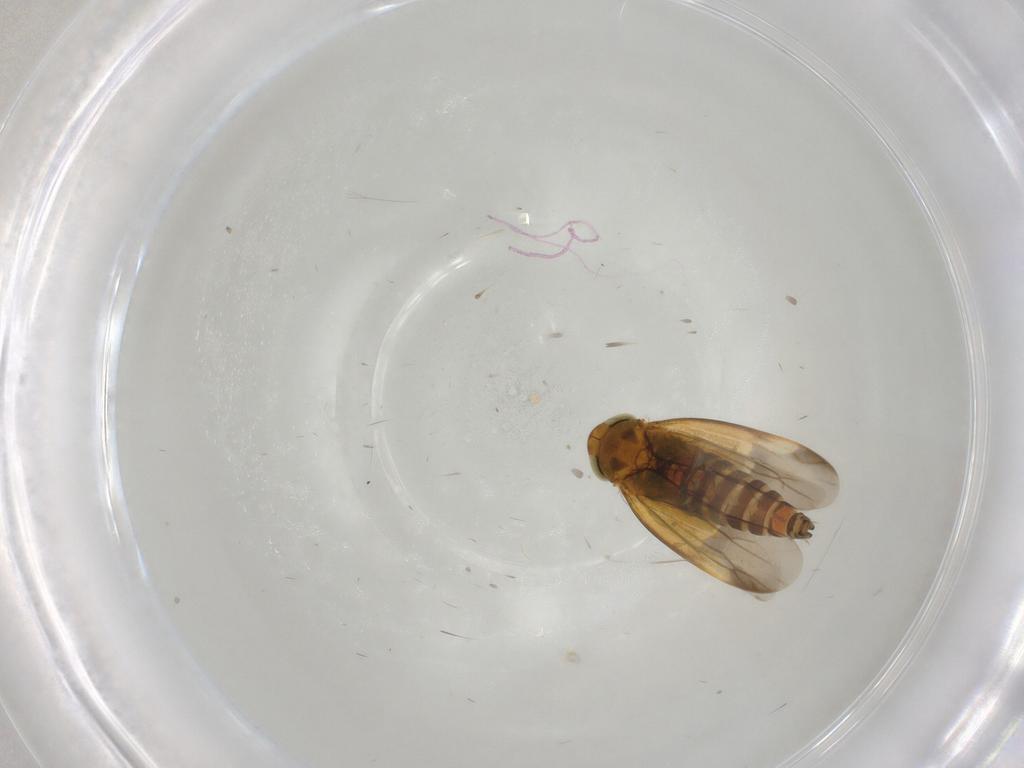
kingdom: Animalia
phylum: Arthropoda
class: Insecta
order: Hemiptera
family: Cicadellidae
